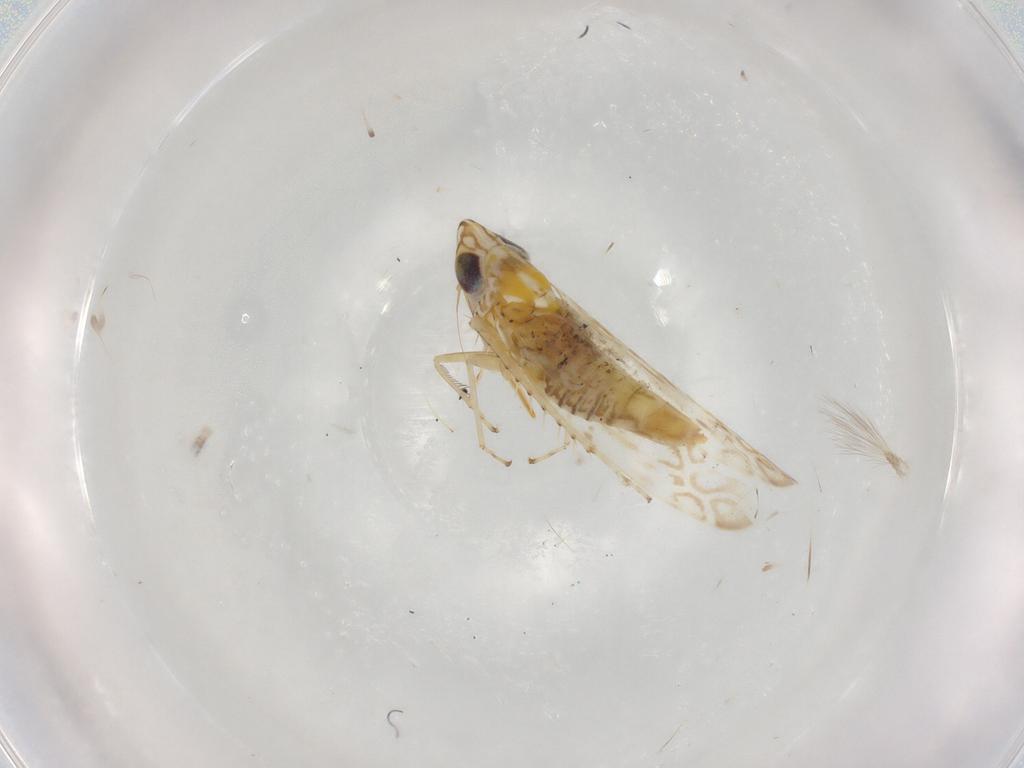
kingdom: Animalia
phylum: Arthropoda
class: Insecta
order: Hemiptera
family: Cicadellidae
